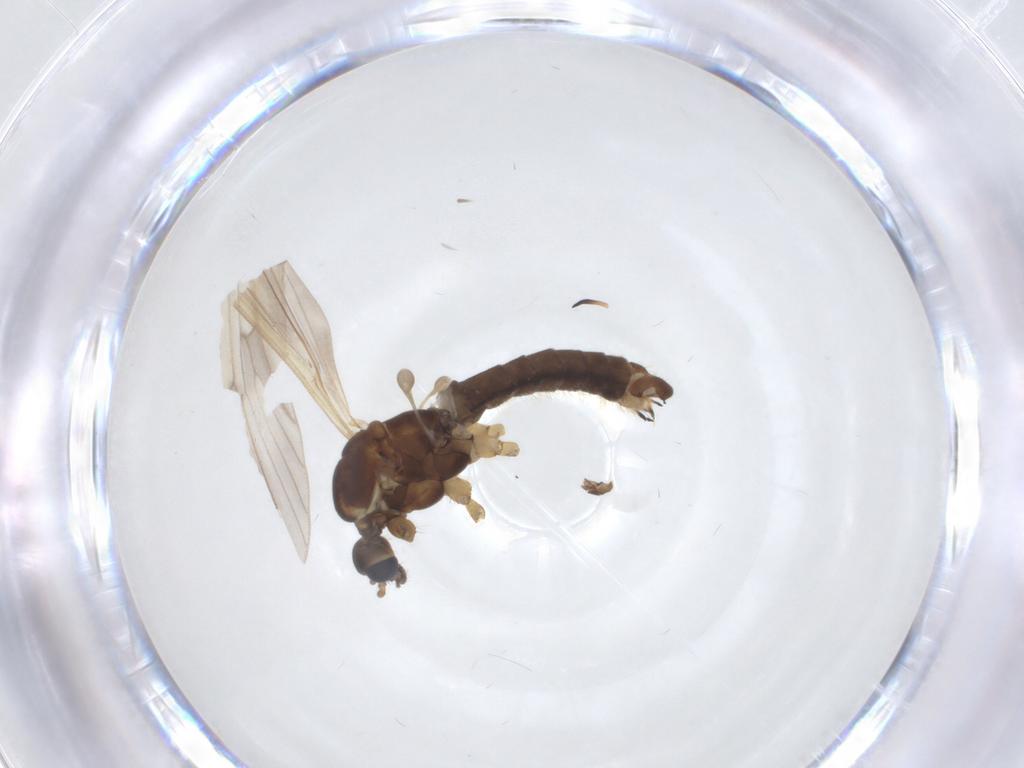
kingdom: Animalia
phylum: Arthropoda
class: Insecta
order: Diptera
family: Limoniidae
